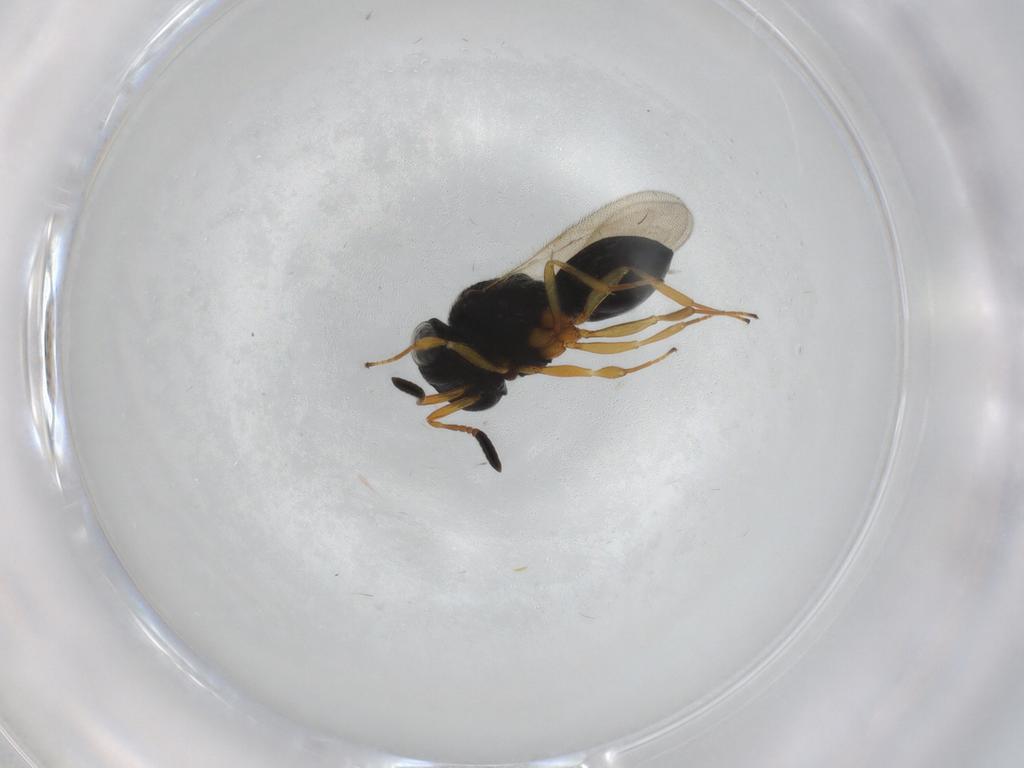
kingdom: Animalia
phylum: Arthropoda
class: Insecta
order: Hymenoptera
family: Scelionidae
